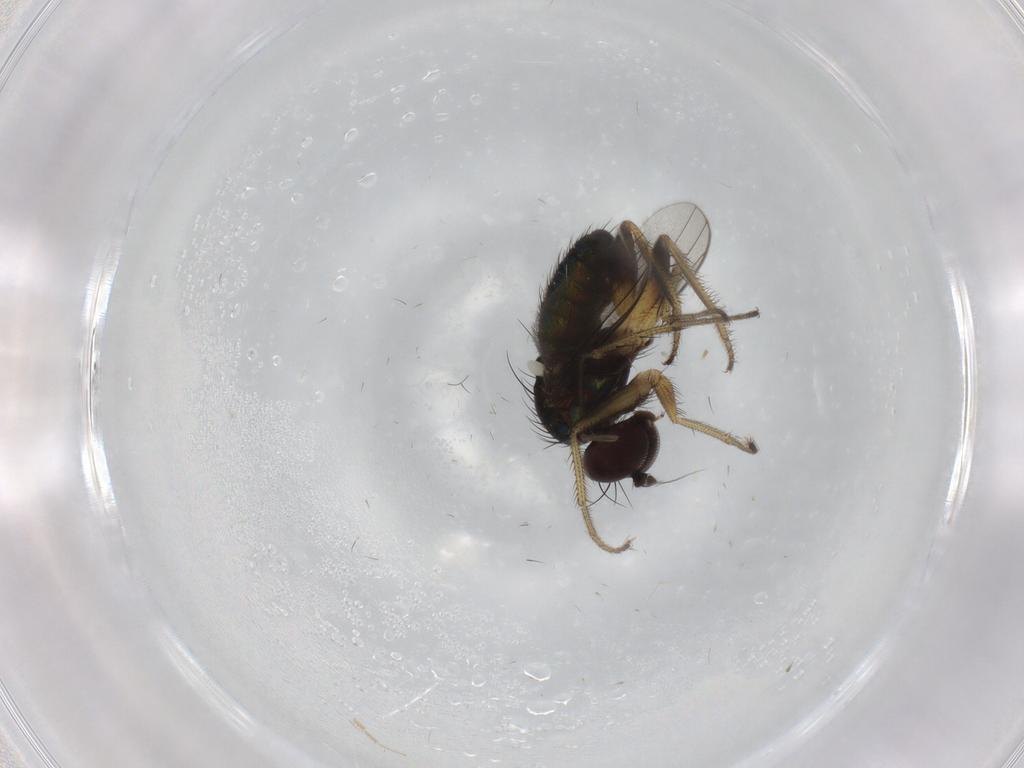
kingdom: Animalia
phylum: Arthropoda
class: Insecta
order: Diptera
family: Dolichopodidae
